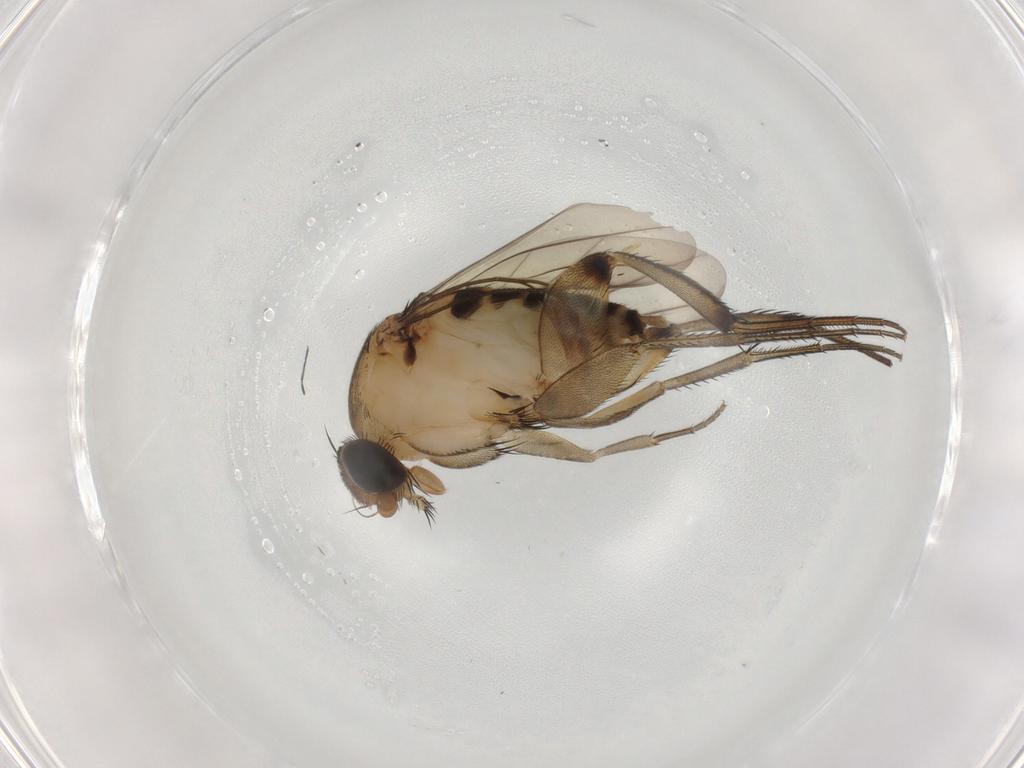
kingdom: Animalia
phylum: Arthropoda
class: Insecta
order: Diptera
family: Phoridae
